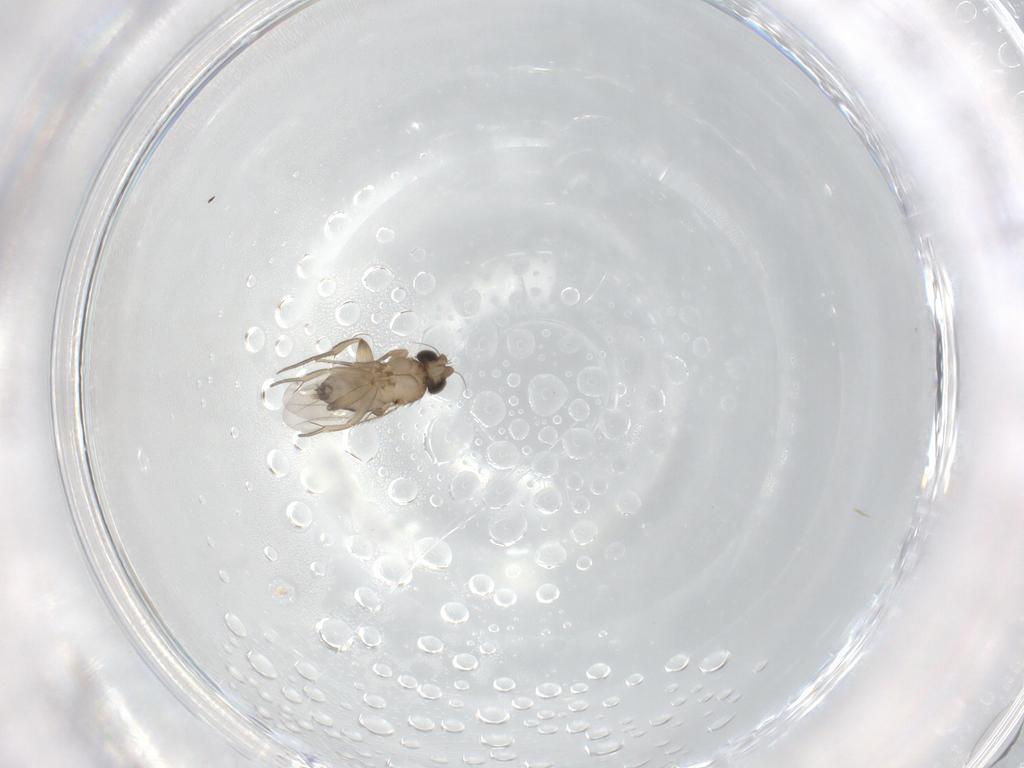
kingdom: Animalia
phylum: Arthropoda
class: Insecta
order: Diptera
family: Phoridae
